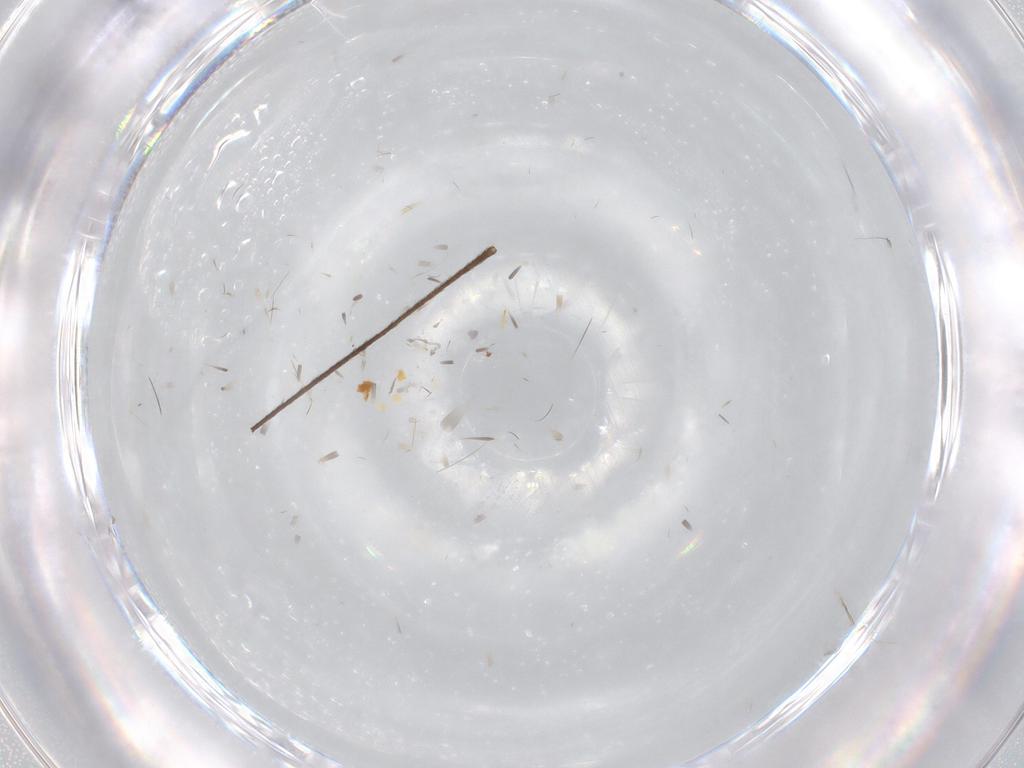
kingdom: Animalia
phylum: Arthropoda
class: Insecta
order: Diptera
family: Limoniidae
